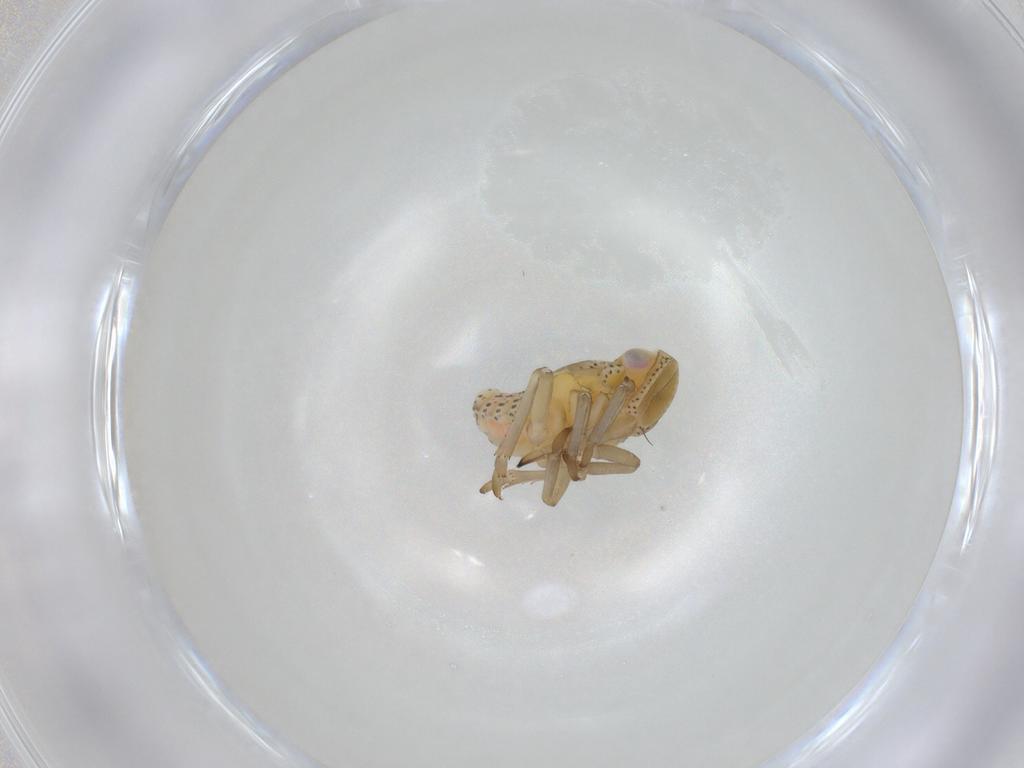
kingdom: Animalia
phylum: Arthropoda
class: Insecta
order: Hemiptera
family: Tropiduchidae
